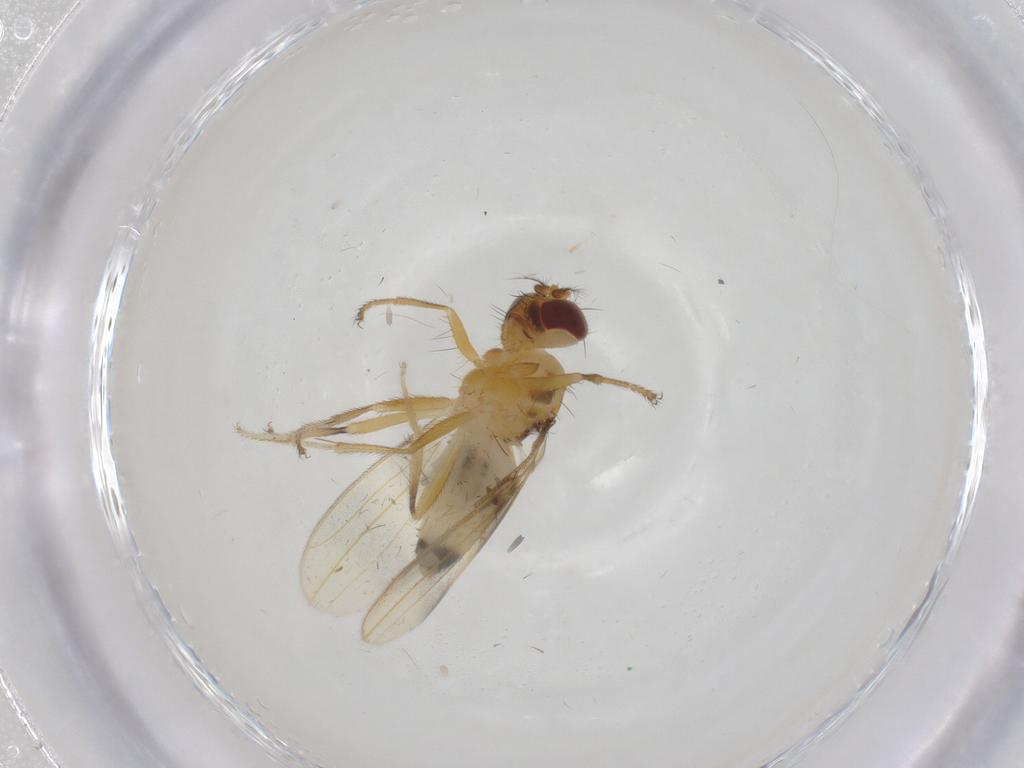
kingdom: Animalia
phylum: Arthropoda
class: Insecta
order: Diptera
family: Periscelididae
